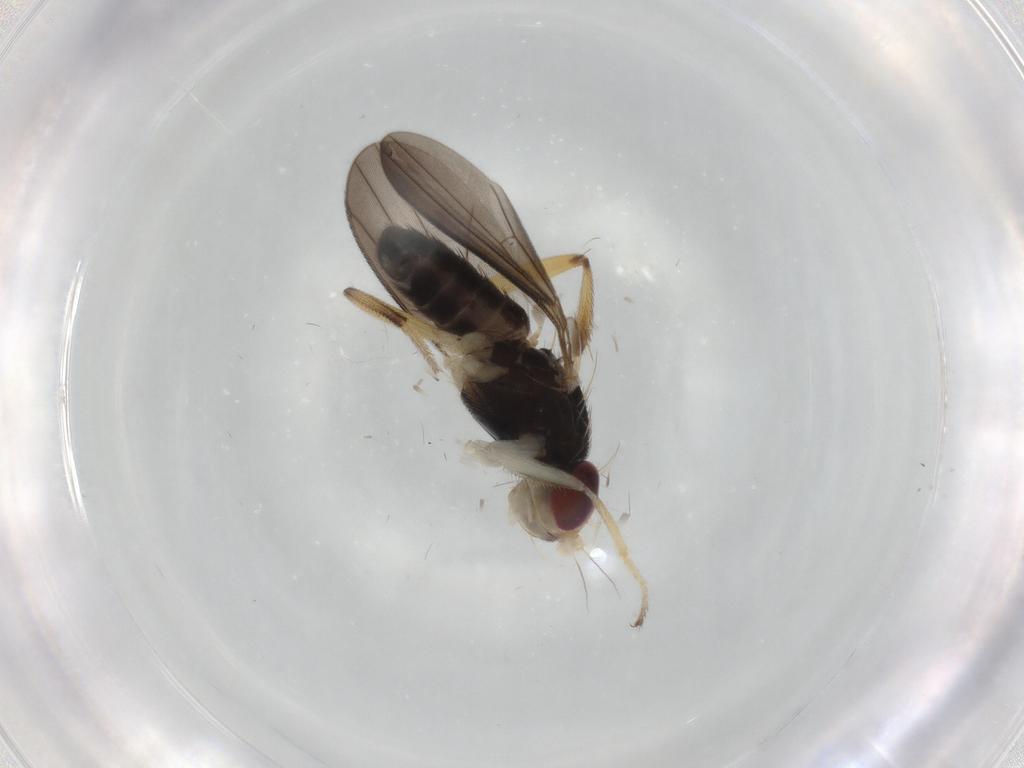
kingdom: Animalia
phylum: Arthropoda
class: Insecta
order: Diptera
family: Clusiidae
